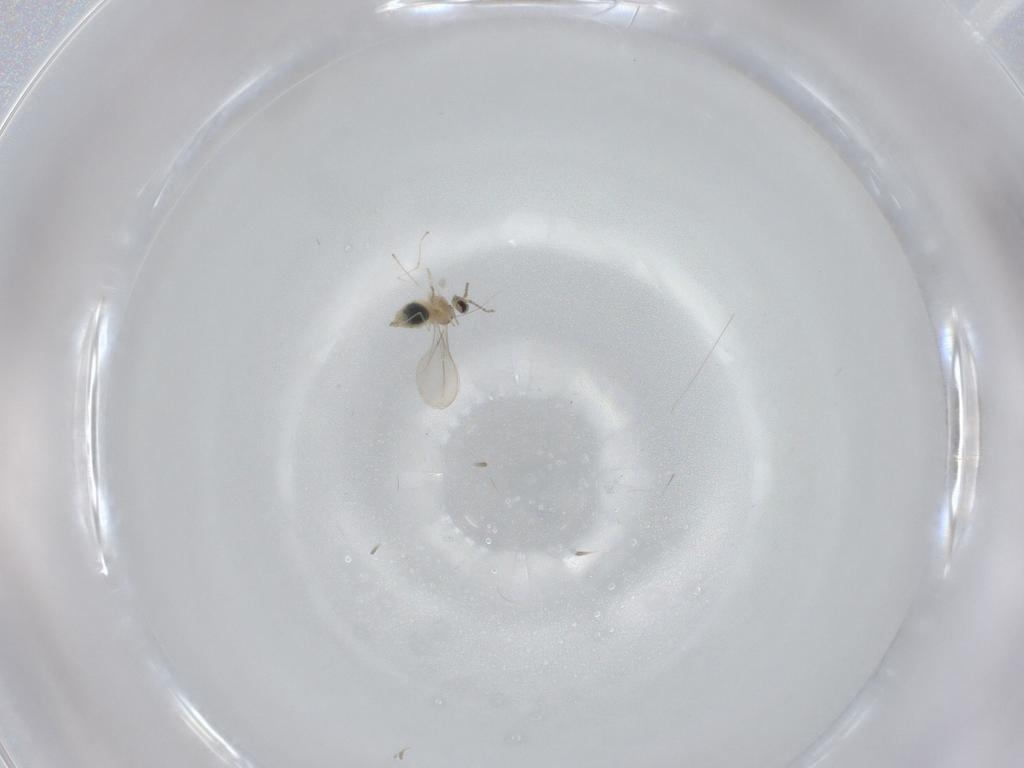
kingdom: Animalia
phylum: Arthropoda
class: Insecta
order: Diptera
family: Cecidomyiidae
